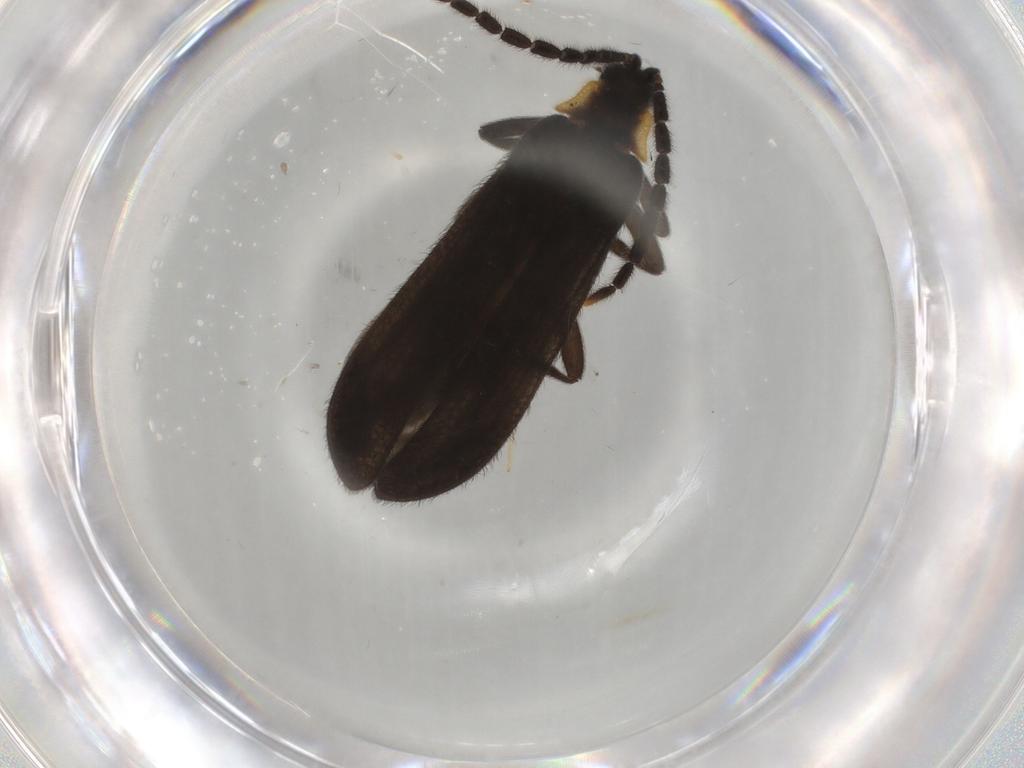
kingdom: Animalia
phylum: Arthropoda
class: Insecta
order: Coleoptera
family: Lycidae
